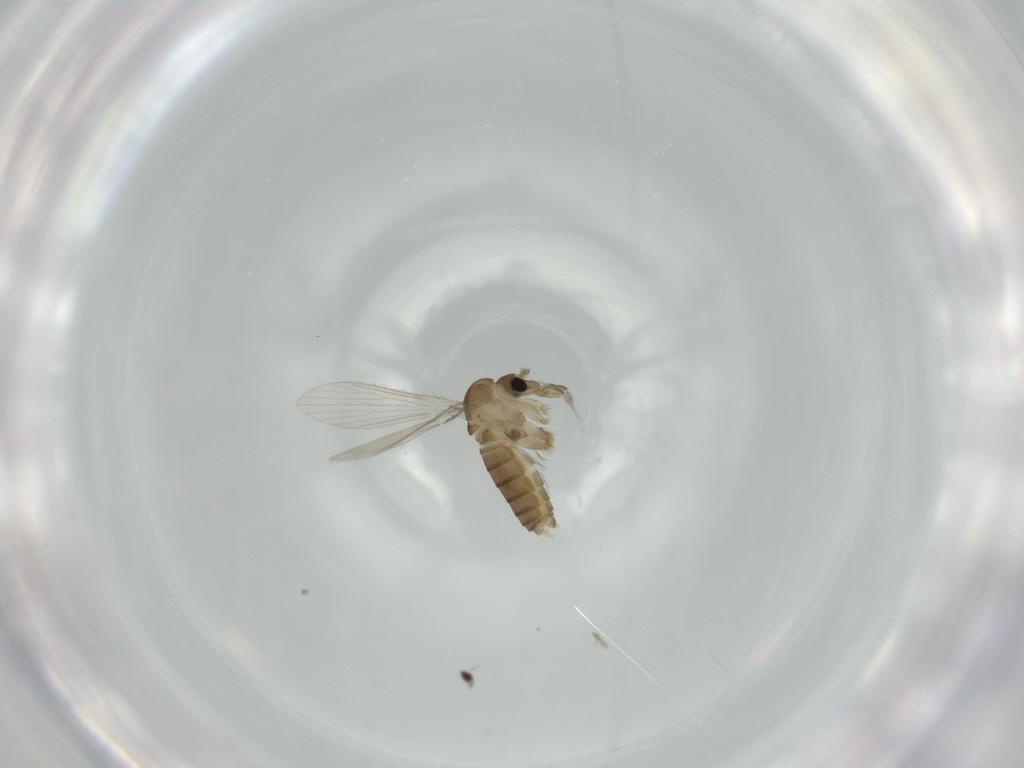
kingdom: Animalia
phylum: Arthropoda
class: Insecta
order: Diptera
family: Psychodidae
